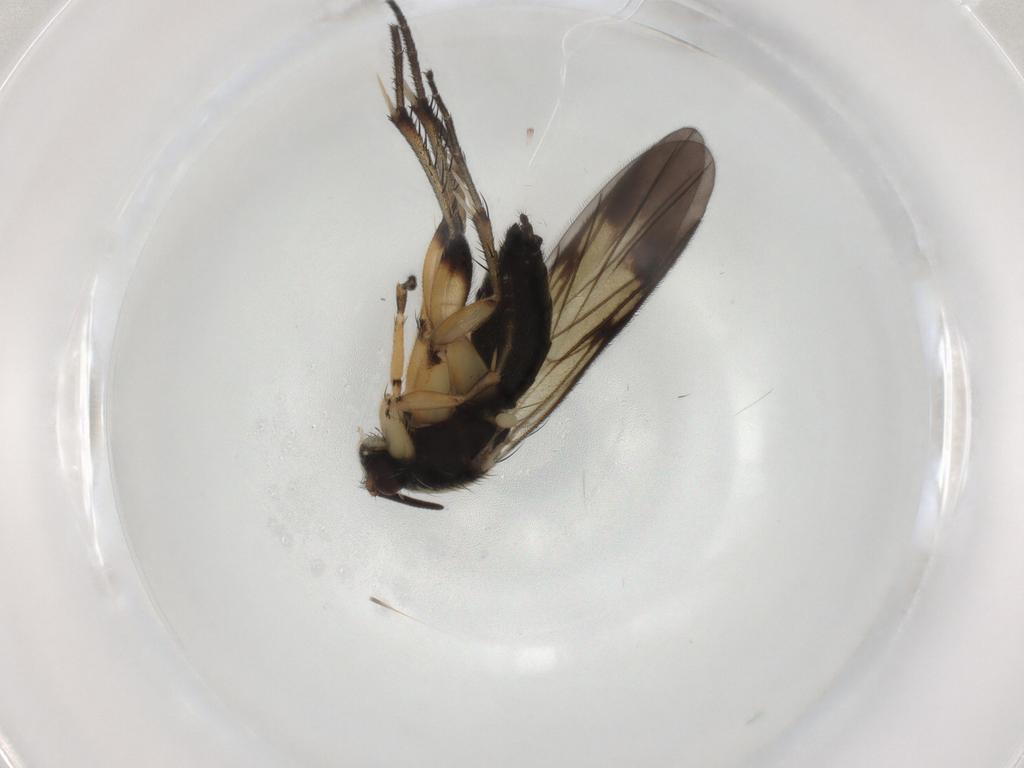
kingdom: Animalia
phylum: Arthropoda
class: Insecta
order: Diptera
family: Mycetophilidae
